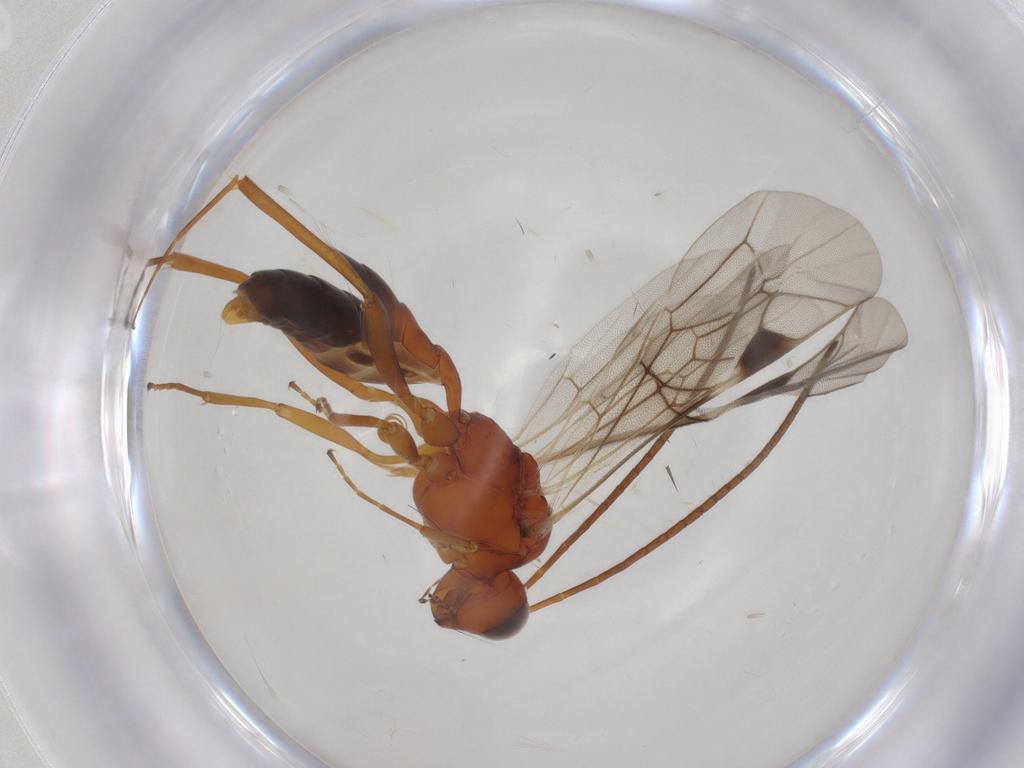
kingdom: Animalia
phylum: Arthropoda
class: Insecta
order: Hymenoptera
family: Ichneumonidae
